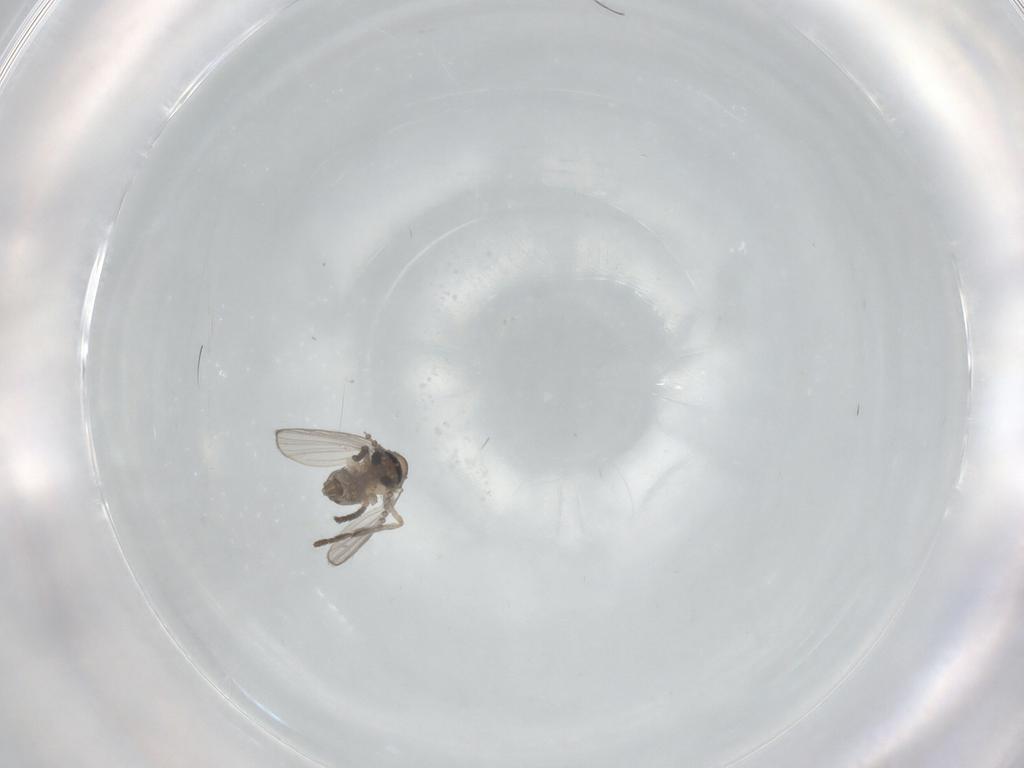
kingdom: Animalia
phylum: Arthropoda
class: Insecta
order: Diptera
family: Psychodidae
